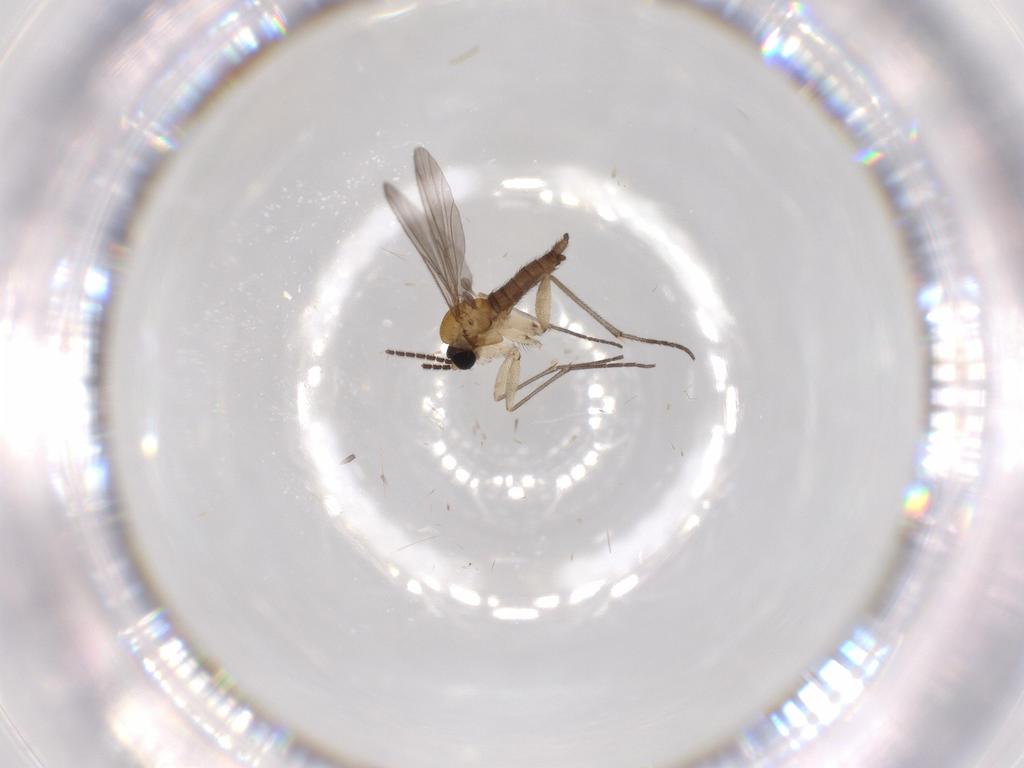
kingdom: Animalia
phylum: Arthropoda
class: Insecta
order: Diptera
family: Sciaridae
